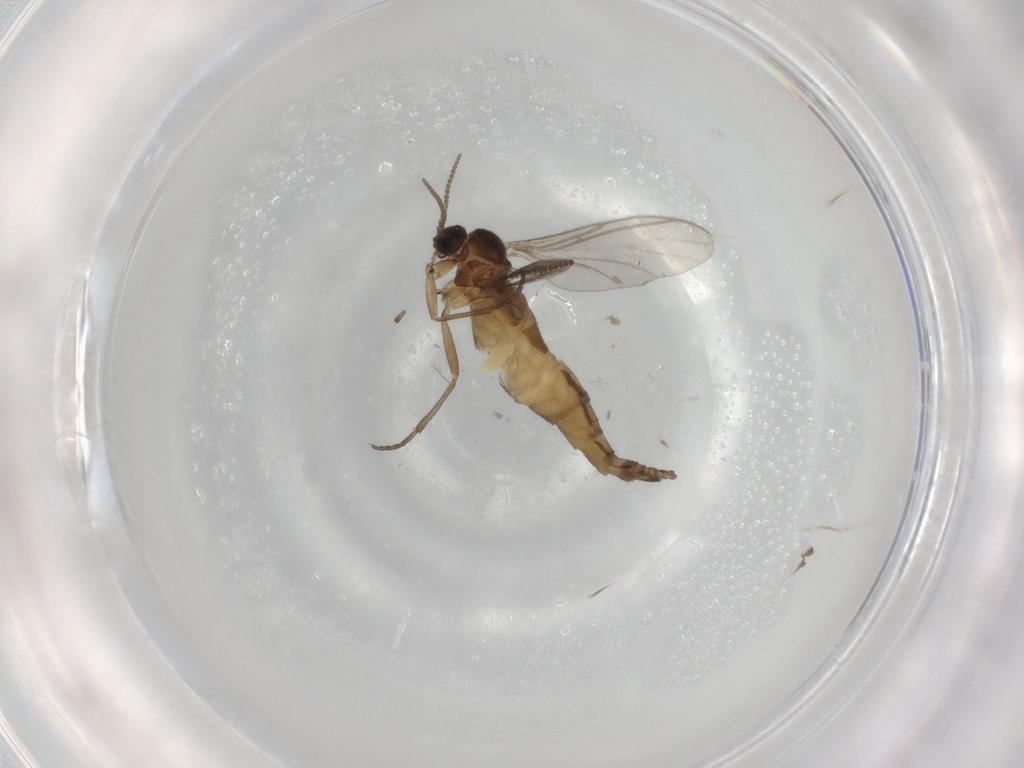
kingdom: Animalia
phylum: Arthropoda
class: Insecta
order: Diptera
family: Sciaridae
